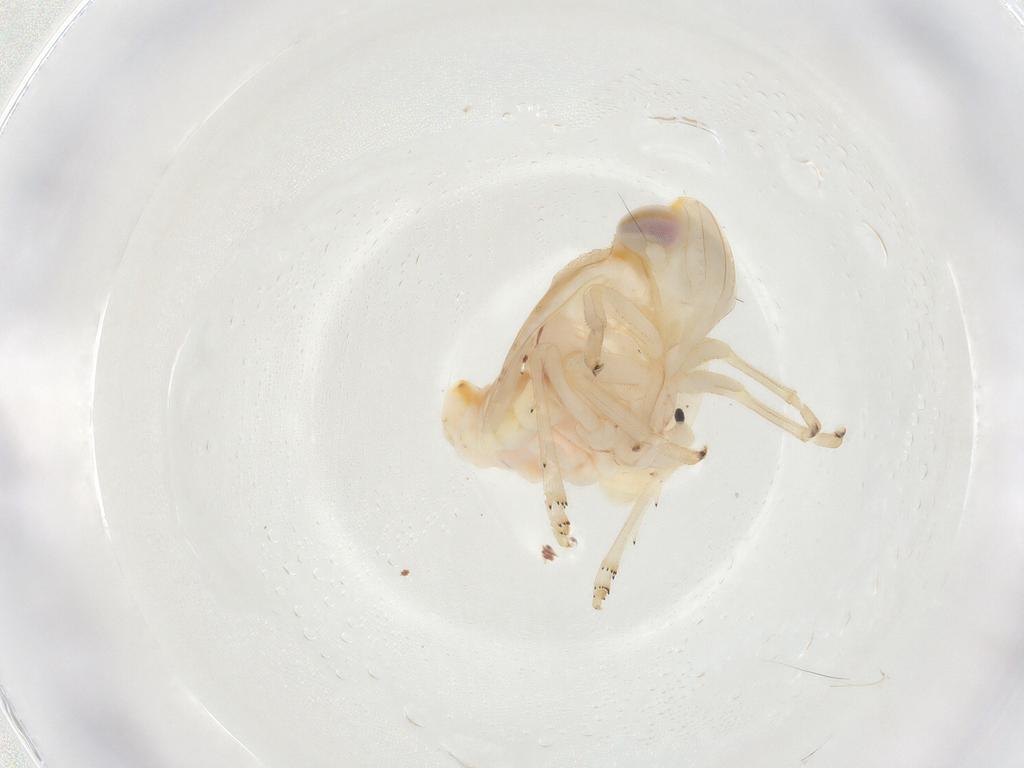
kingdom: Animalia
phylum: Arthropoda
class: Insecta
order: Hemiptera
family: Nogodinidae
